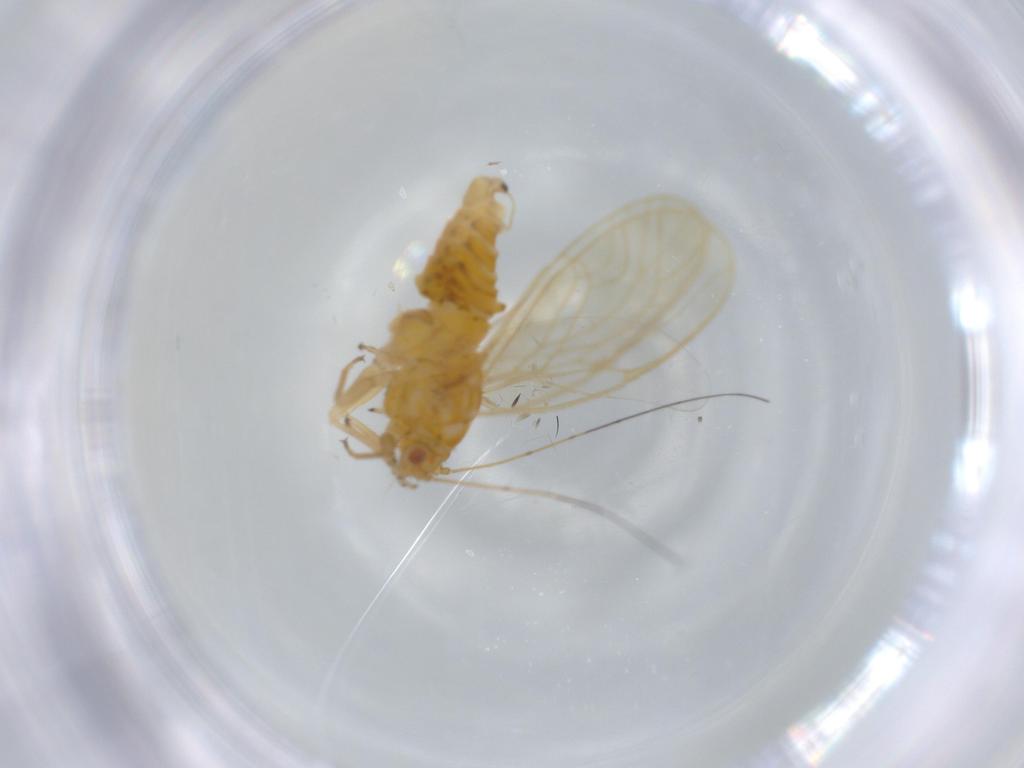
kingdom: Animalia
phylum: Arthropoda
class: Insecta
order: Hemiptera
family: Psyllidae
